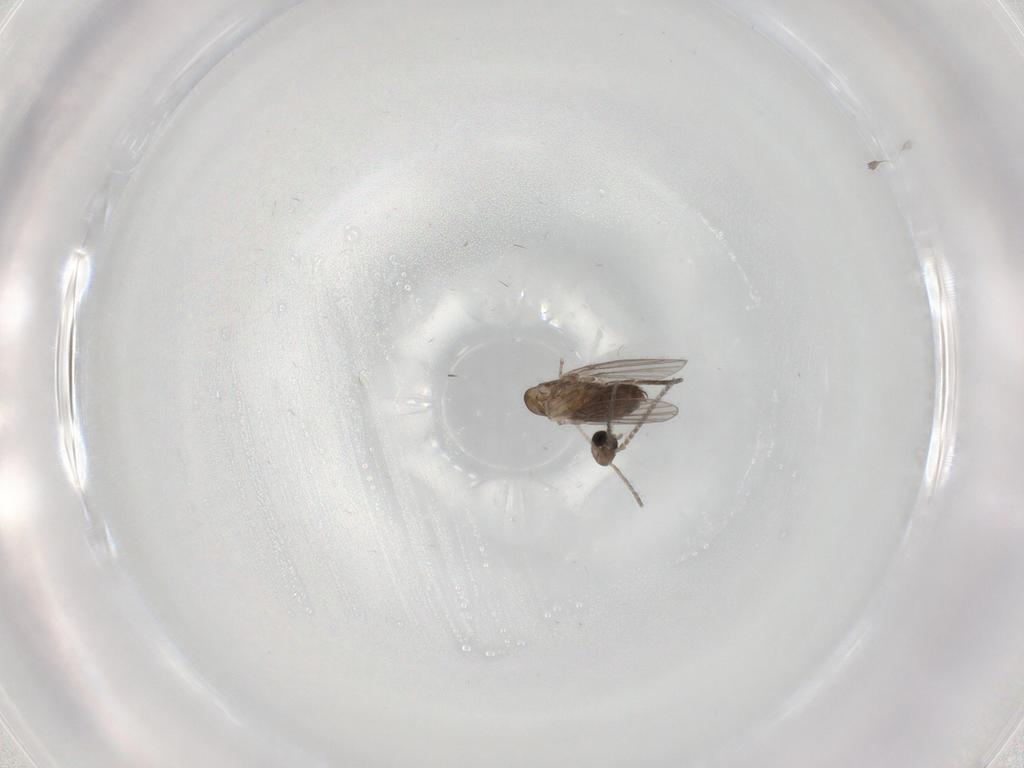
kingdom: Animalia
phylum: Arthropoda
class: Insecta
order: Diptera
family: Psychodidae
